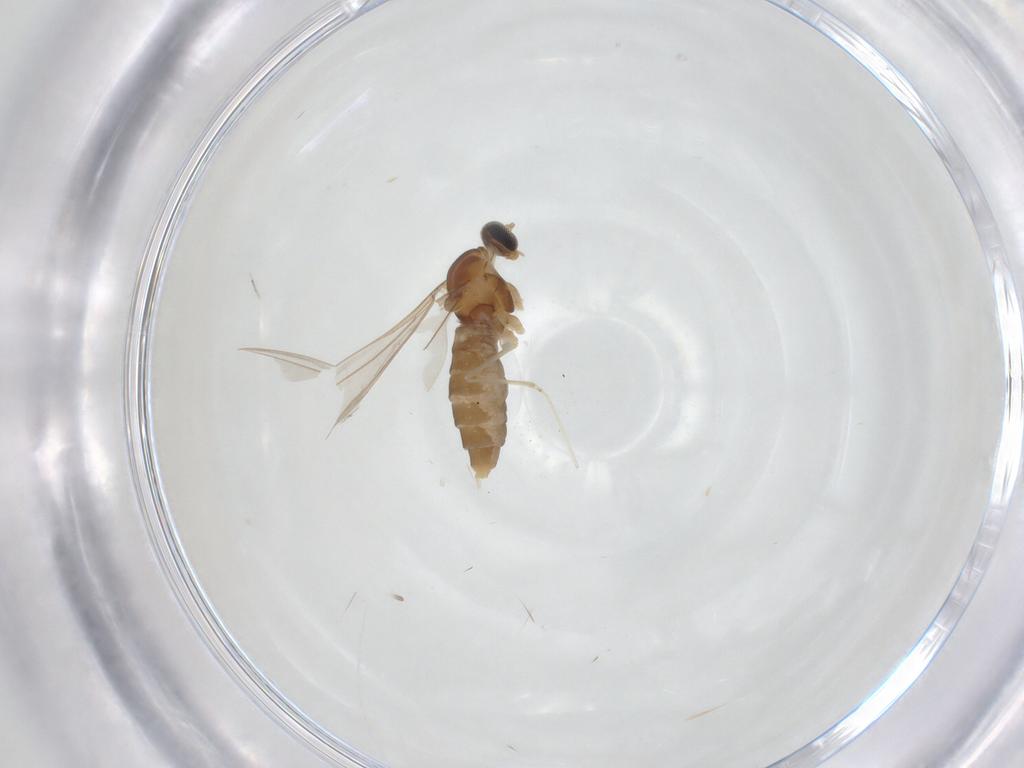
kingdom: Animalia
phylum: Arthropoda
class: Insecta
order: Diptera
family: Cecidomyiidae
